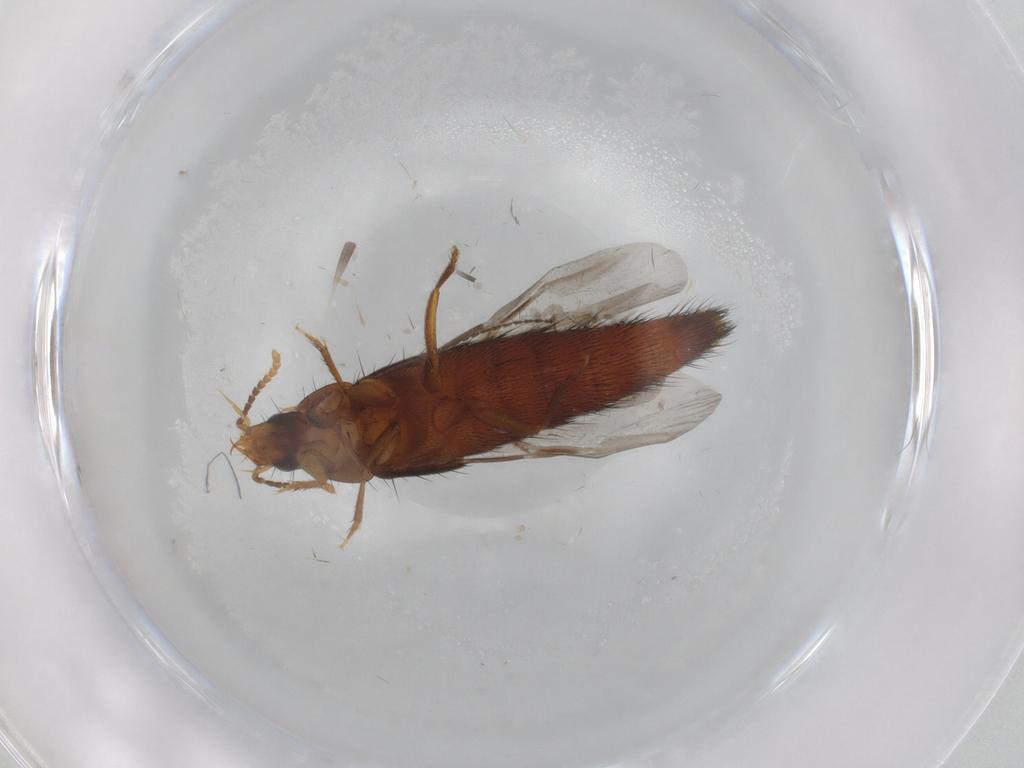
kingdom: Animalia
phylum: Arthropoda
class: Insecta
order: Coleoptera
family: Staphylinidae
